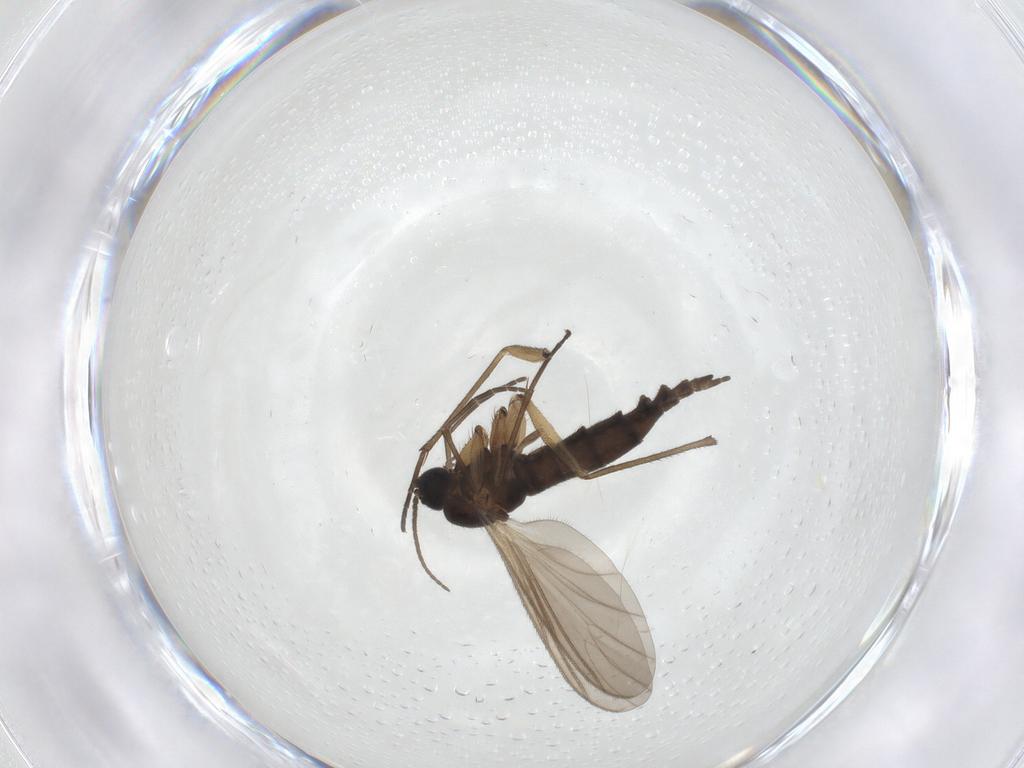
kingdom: Animalia
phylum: Arthropoda
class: Insecta
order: Diptera
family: Sciaridae
